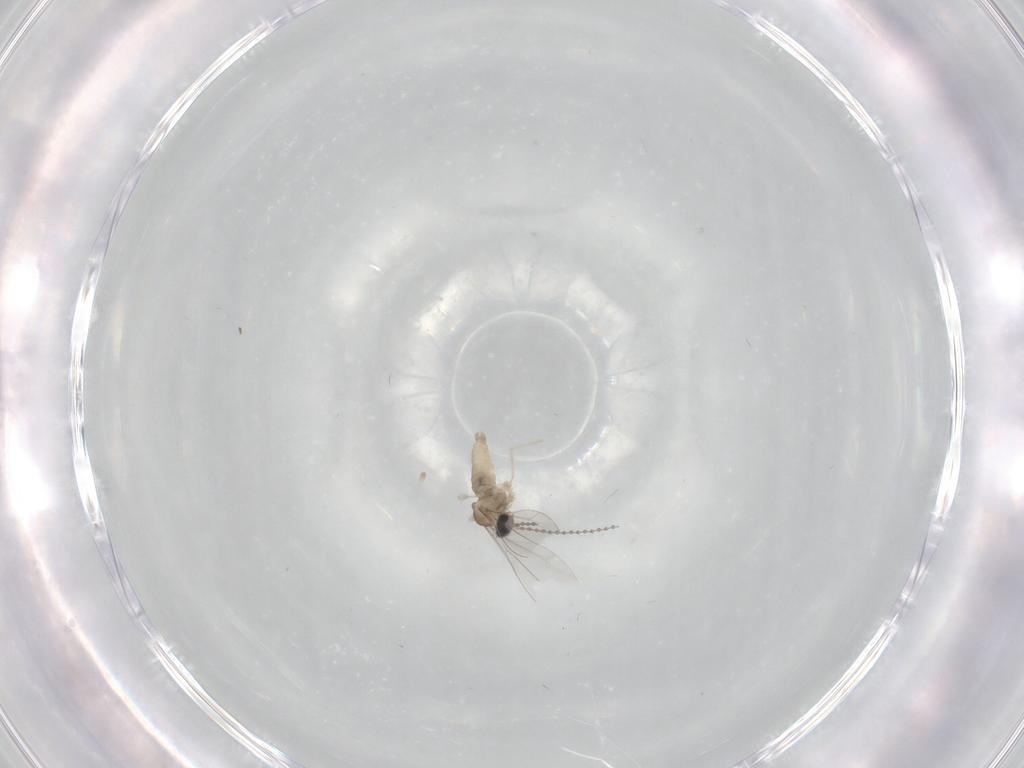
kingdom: Animalia
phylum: Arthropoda
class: Insecta
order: Diptera
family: Cecidomyiidae
